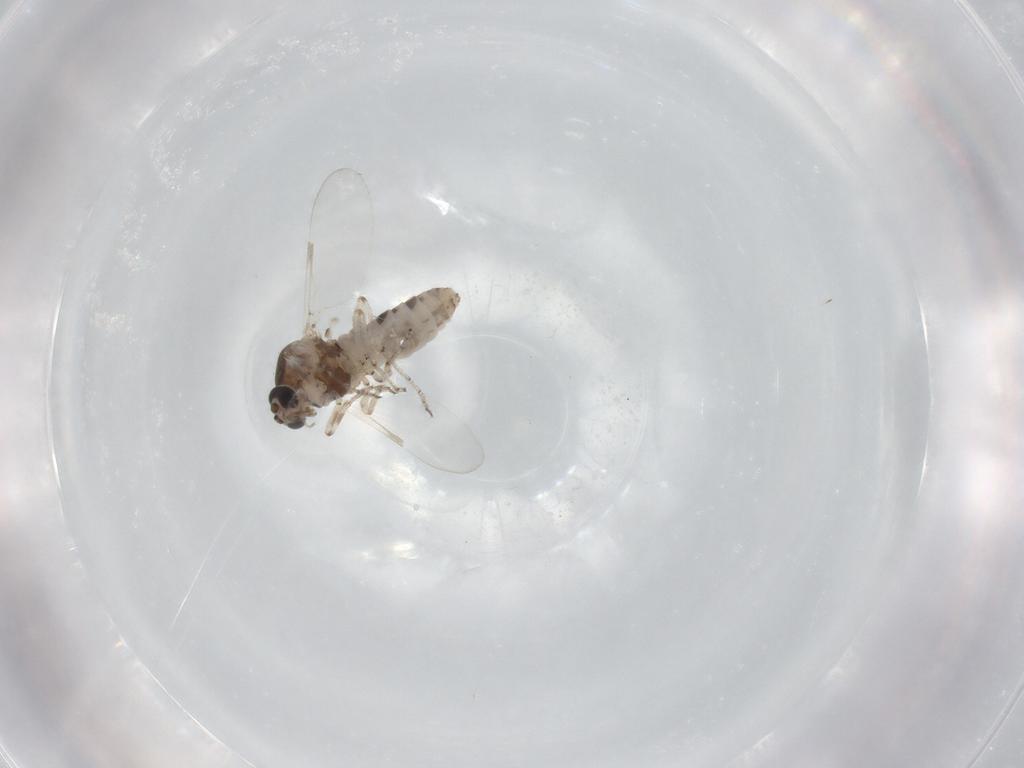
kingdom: Animalia
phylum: Arthropoda
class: Insecta
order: Diptera
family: Ceratopogonidae
